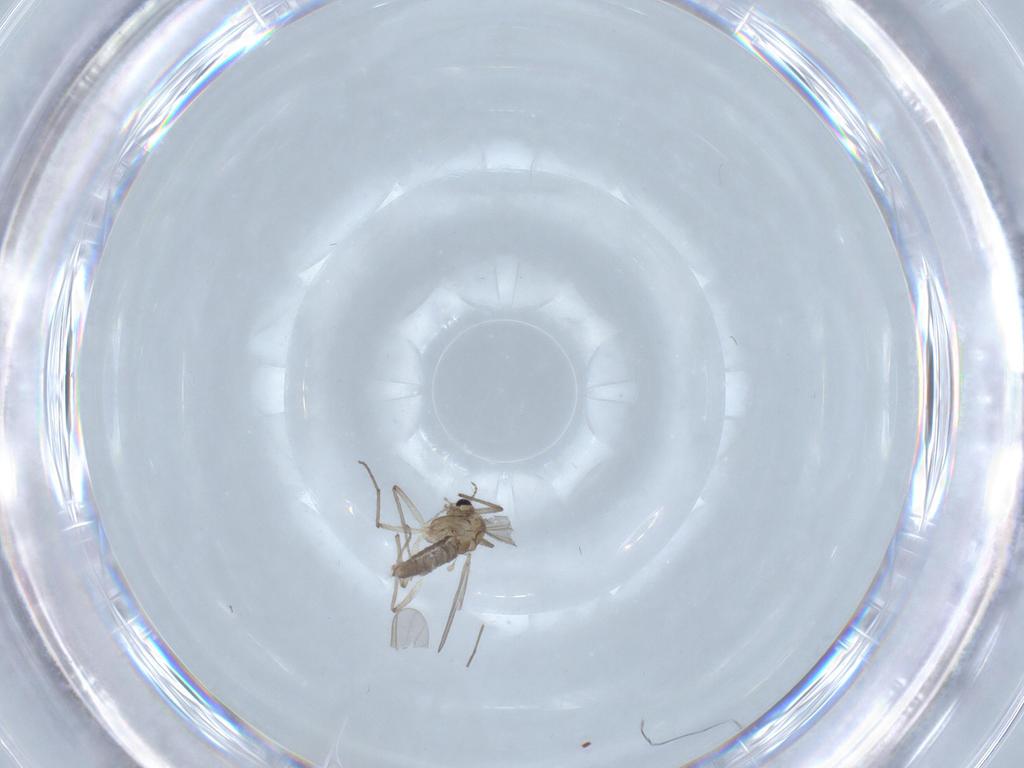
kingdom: Animalia
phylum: Arthropoda
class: Insecta
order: Diptera
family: Chironomidae
